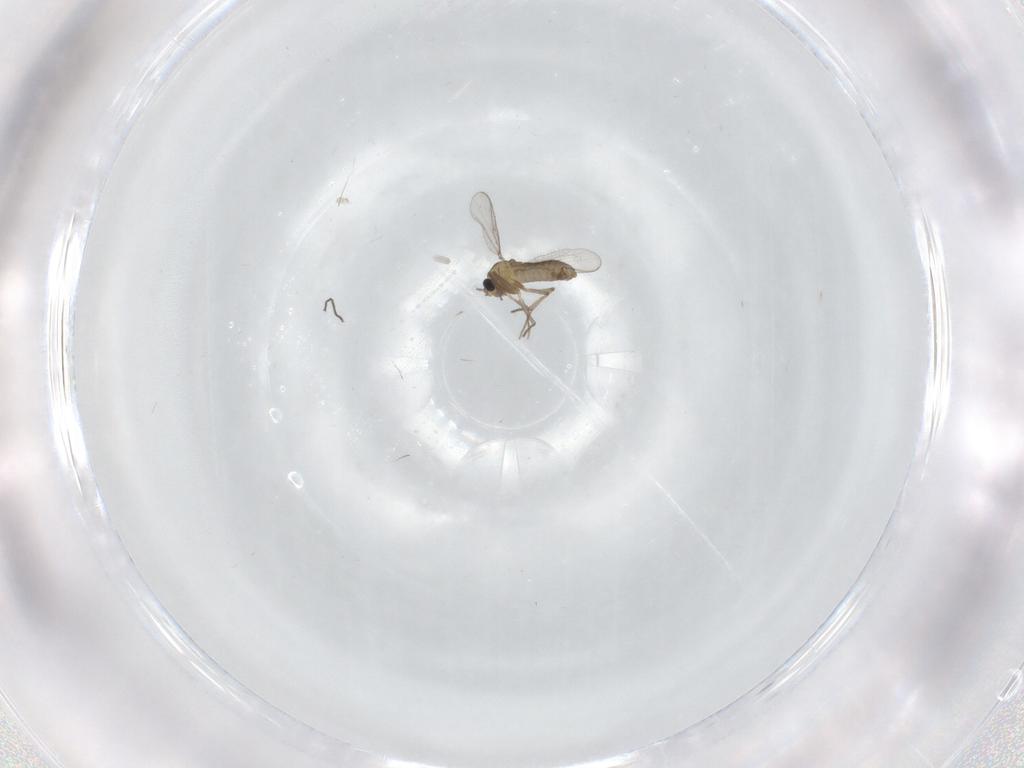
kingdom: Animalia
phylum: Arthropoda
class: Insecta
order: Diptera
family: Chironomidae
